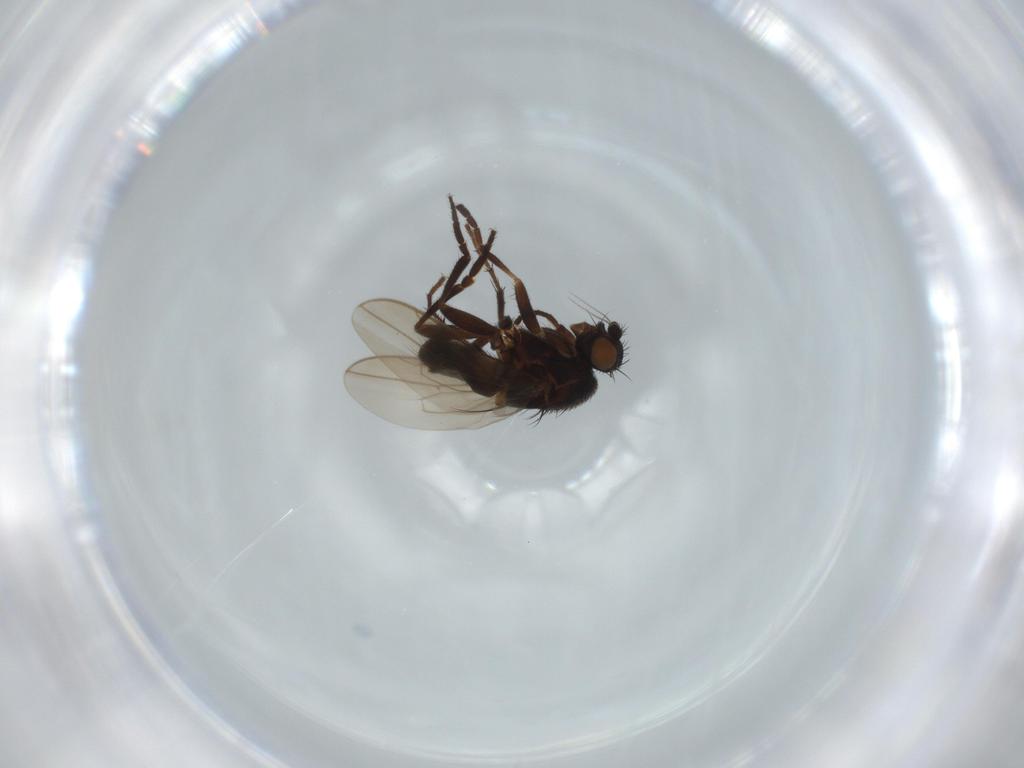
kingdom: Animalia
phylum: Arthropoda
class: Insecta
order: Diptera
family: Sphaeroceridae
